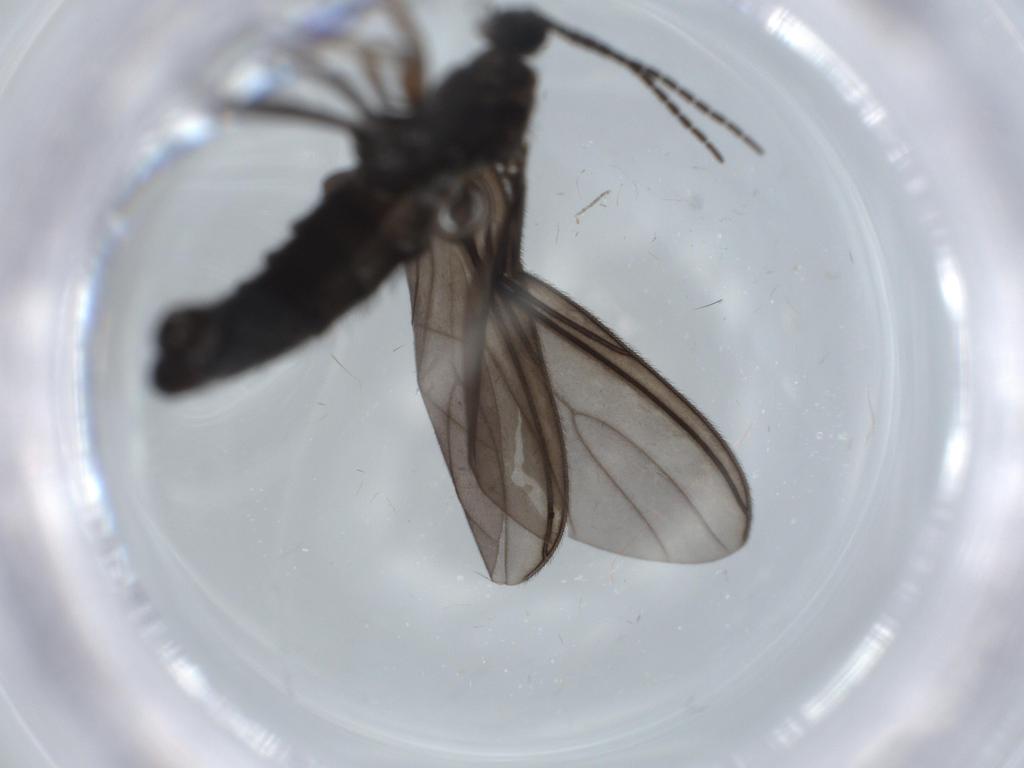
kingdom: Animalia
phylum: Arthropoda
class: Insecta
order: Diptera
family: Sciaridae
